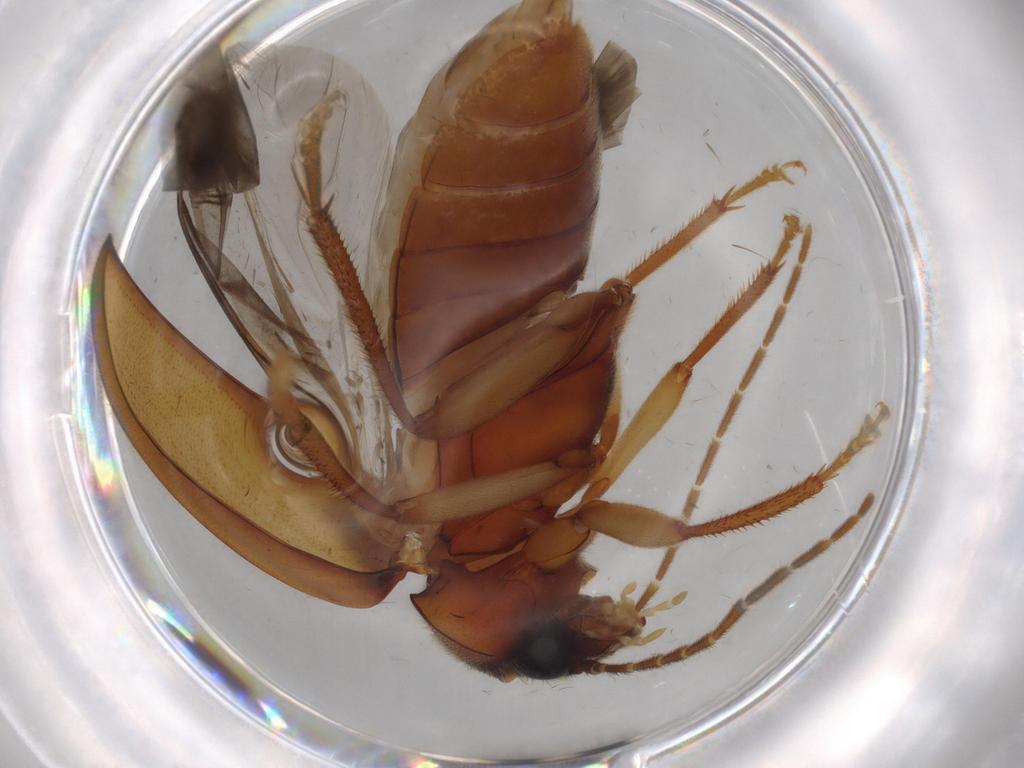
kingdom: Animalia
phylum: Arthropoda
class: Insecta
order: Coleoptera
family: Ptilodactylidae
